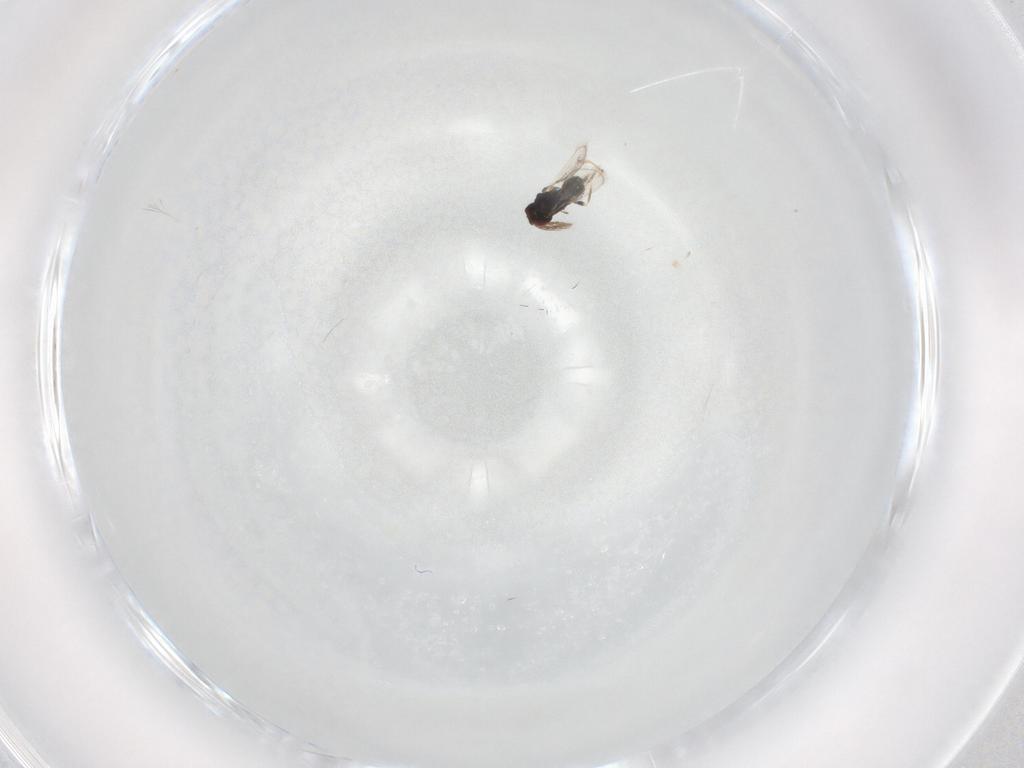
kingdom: Animalia
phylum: Arthropoda
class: Insecta
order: Hymenoptera
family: Eulophidae
